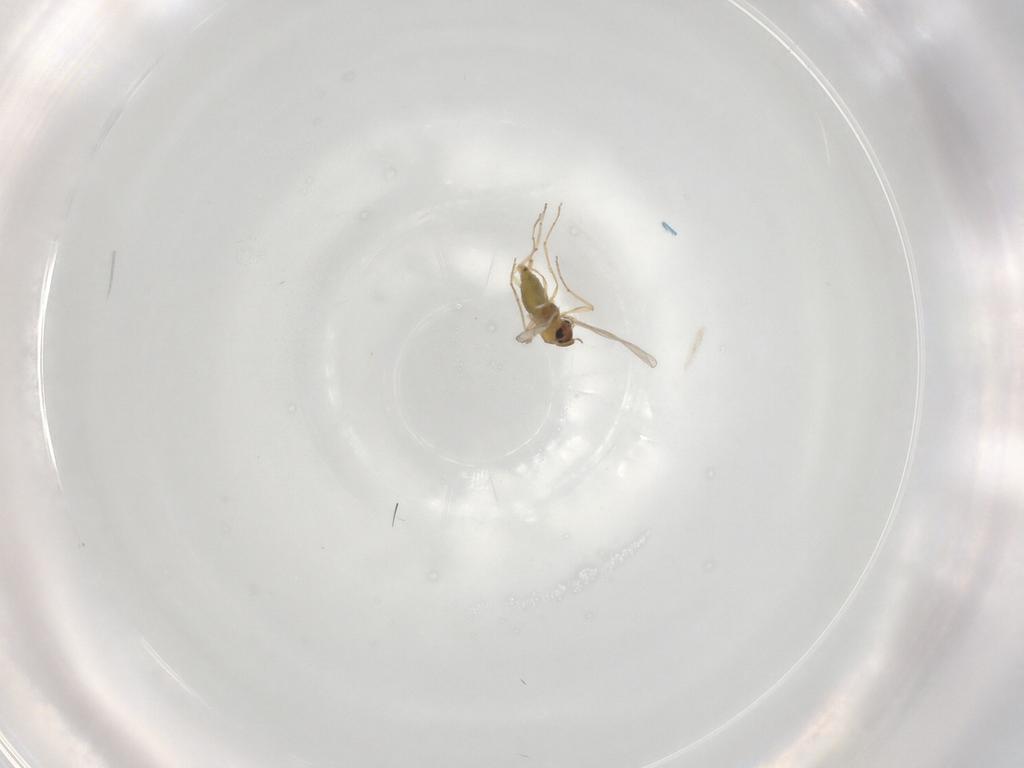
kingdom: Animalia
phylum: Arthropoda
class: Insecta
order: Diptera
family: Chironomidae
